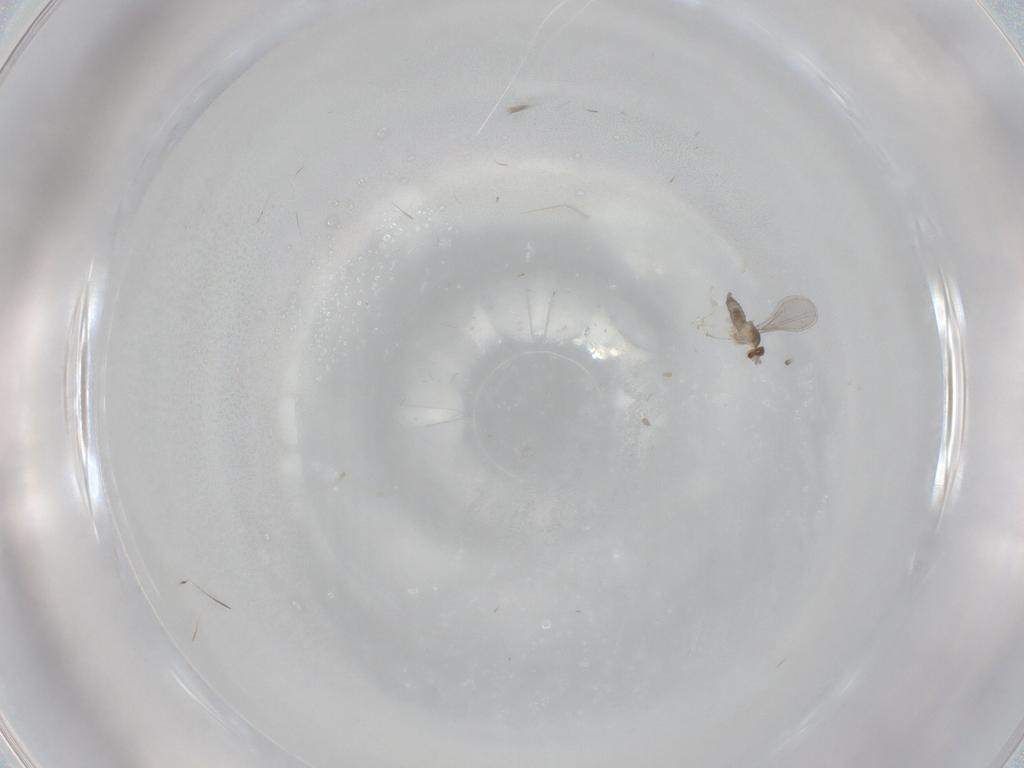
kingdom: Animalia
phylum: Arthropoda
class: Insecta
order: Diptera
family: Cecidomyiidae
